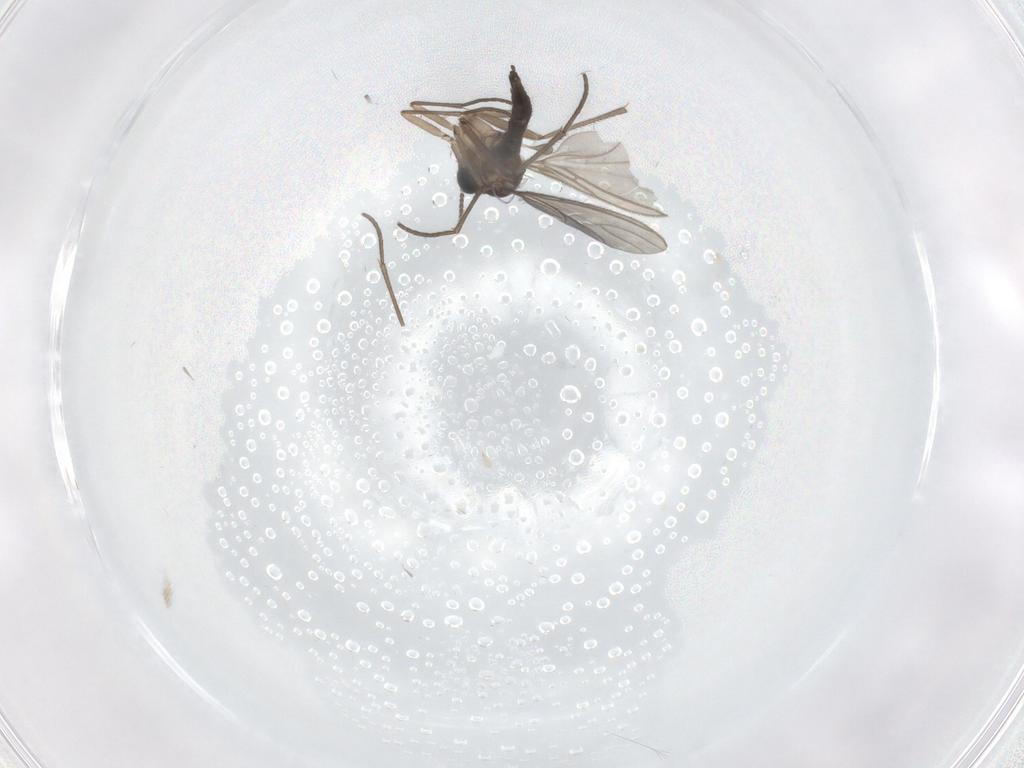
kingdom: Animalia
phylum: Arthropoda
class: Insecta
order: Diptera
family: Sciaridae
